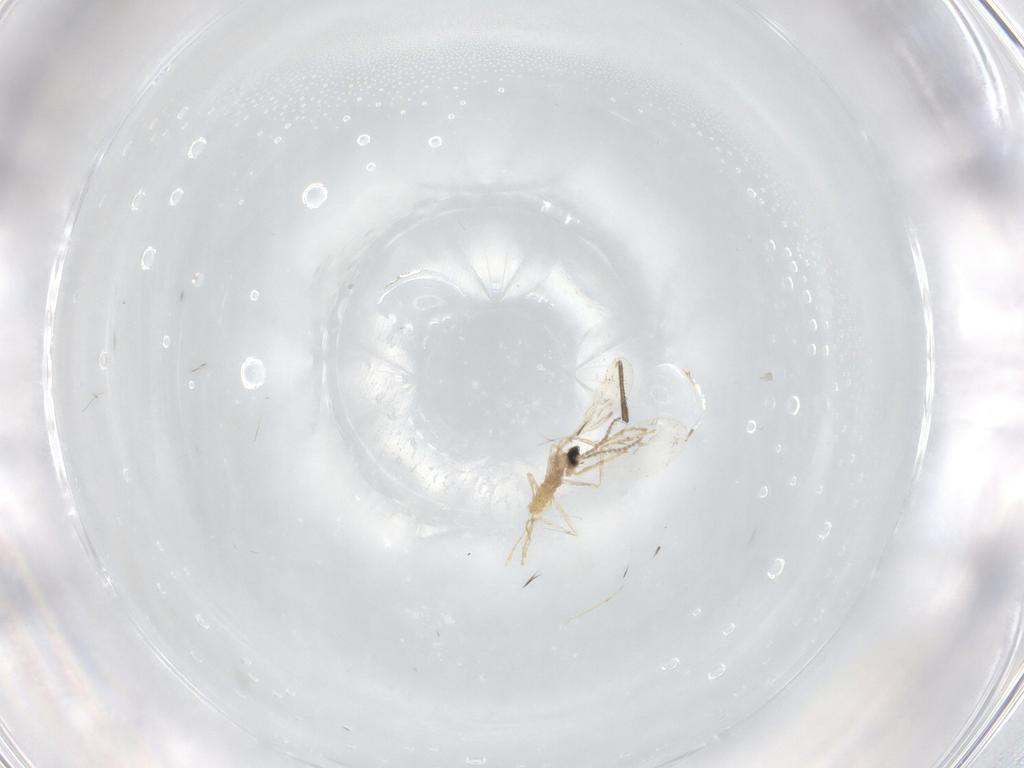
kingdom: Animalia
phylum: Arthropoda
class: Insecta
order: Diptera
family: Cecidomyiidae
